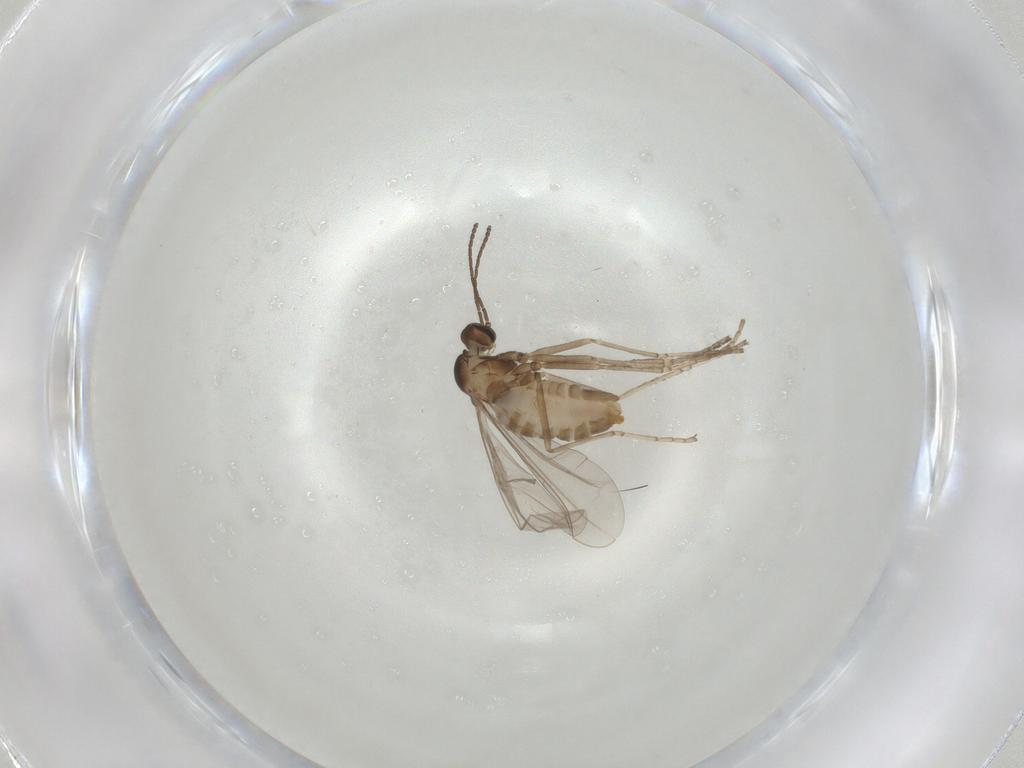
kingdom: Animalia
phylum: Arthropoda
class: Insecta
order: Diptera
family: Cecidomyiidae
